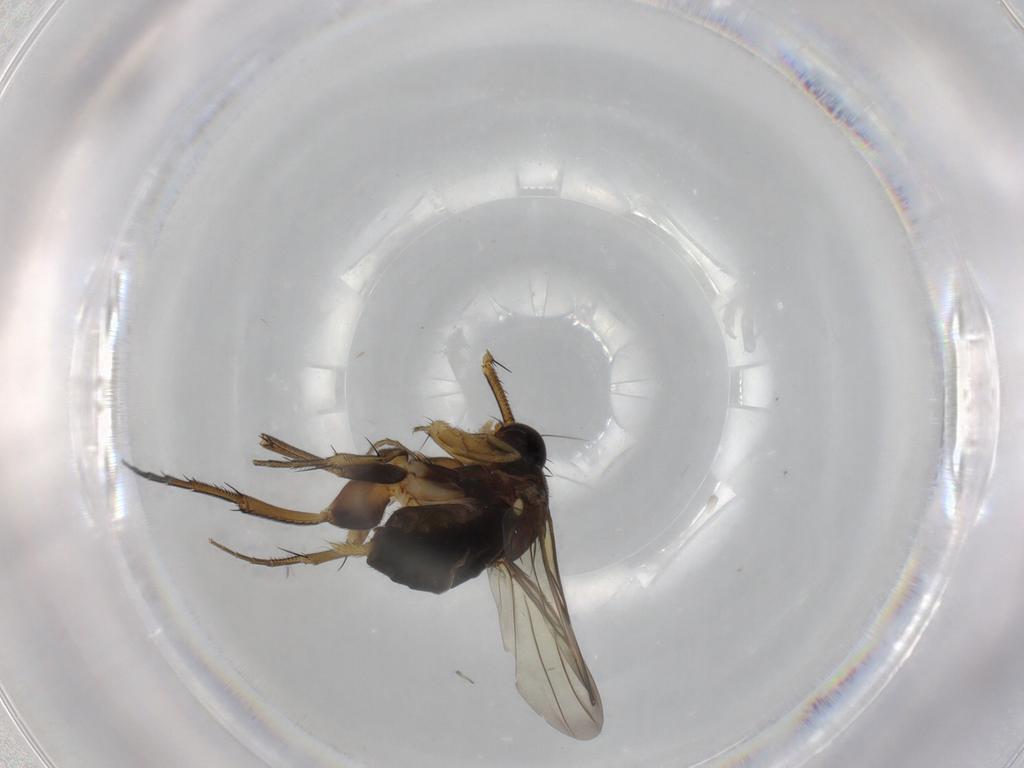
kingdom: Animalia
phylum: Arthropoda
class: Insecta
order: Diptera
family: Phoridae
